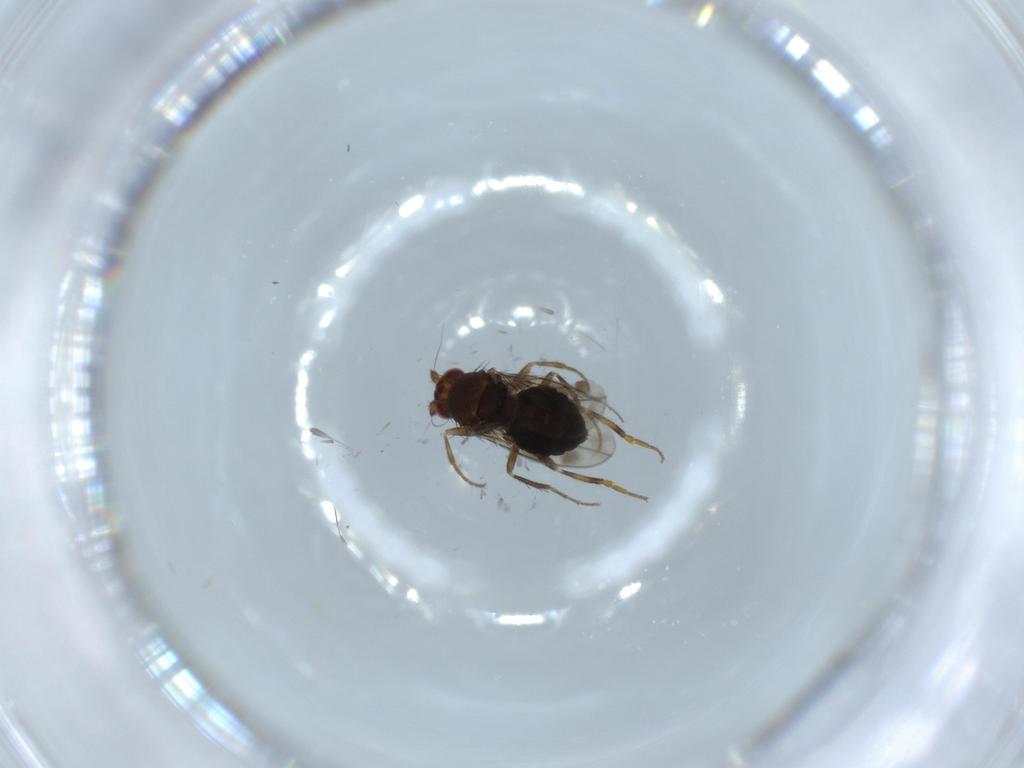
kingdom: Animalia
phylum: Arthropoda
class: Insecta
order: Diptera
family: Sphaeroceridae
